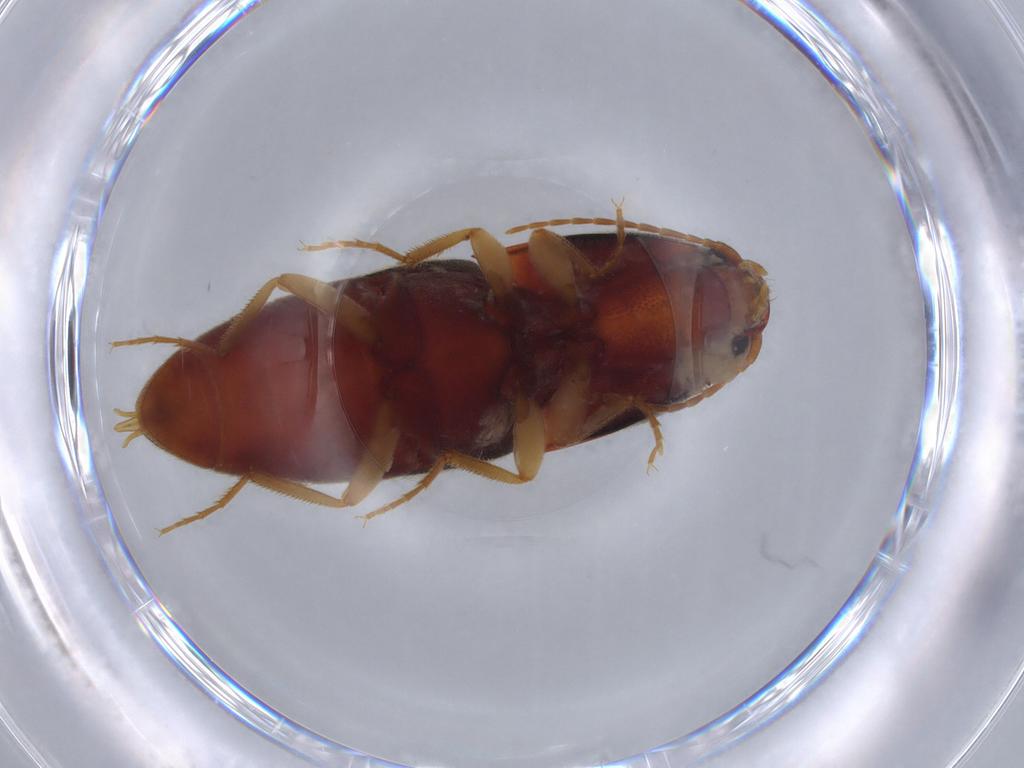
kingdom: Animalia
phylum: Arthropoda
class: Insecta
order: Coleoptera
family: Elateridae
